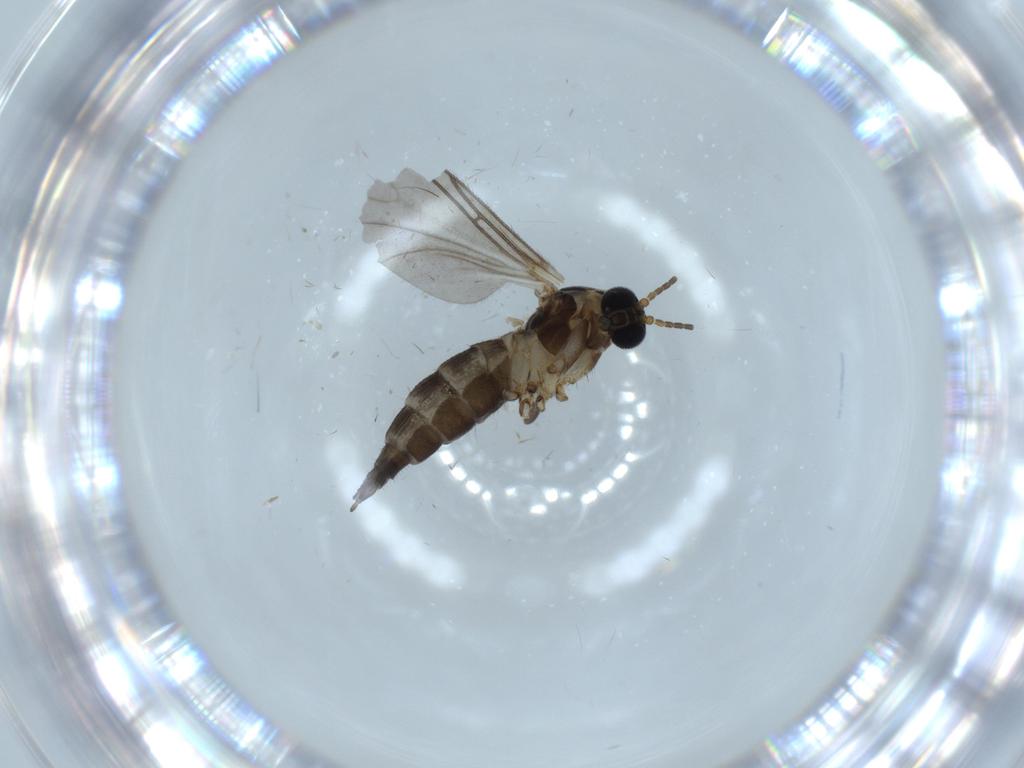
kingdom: Animalia
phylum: Arthropoda
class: Insecta
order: Diptera
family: Sciaridae
